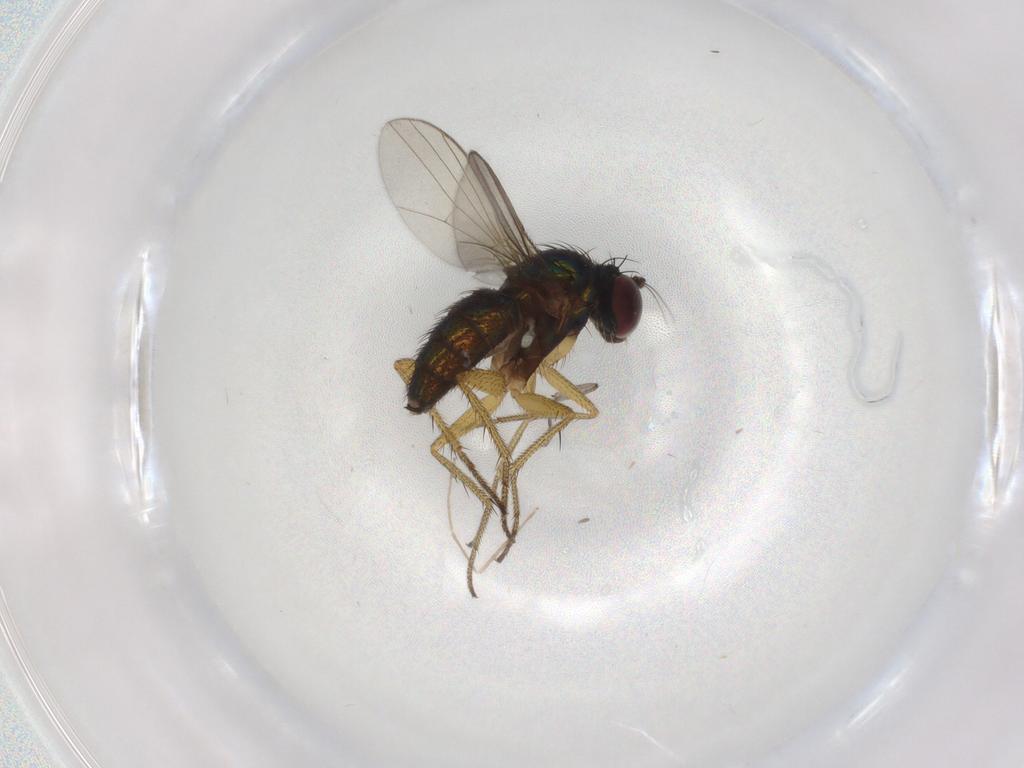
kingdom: Animalia
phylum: Arthropoda
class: Insecta
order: Diptera
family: Sciaridae
